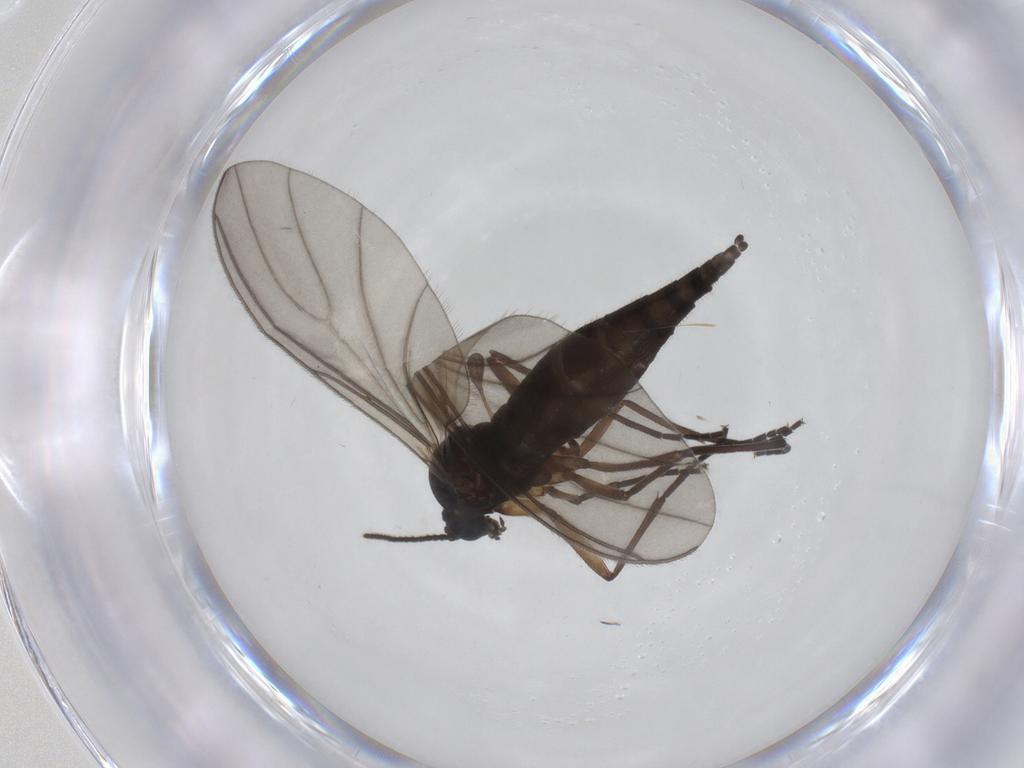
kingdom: Animalia
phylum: Arthropoda
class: Insecta
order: Diptera
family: Sciaridae
